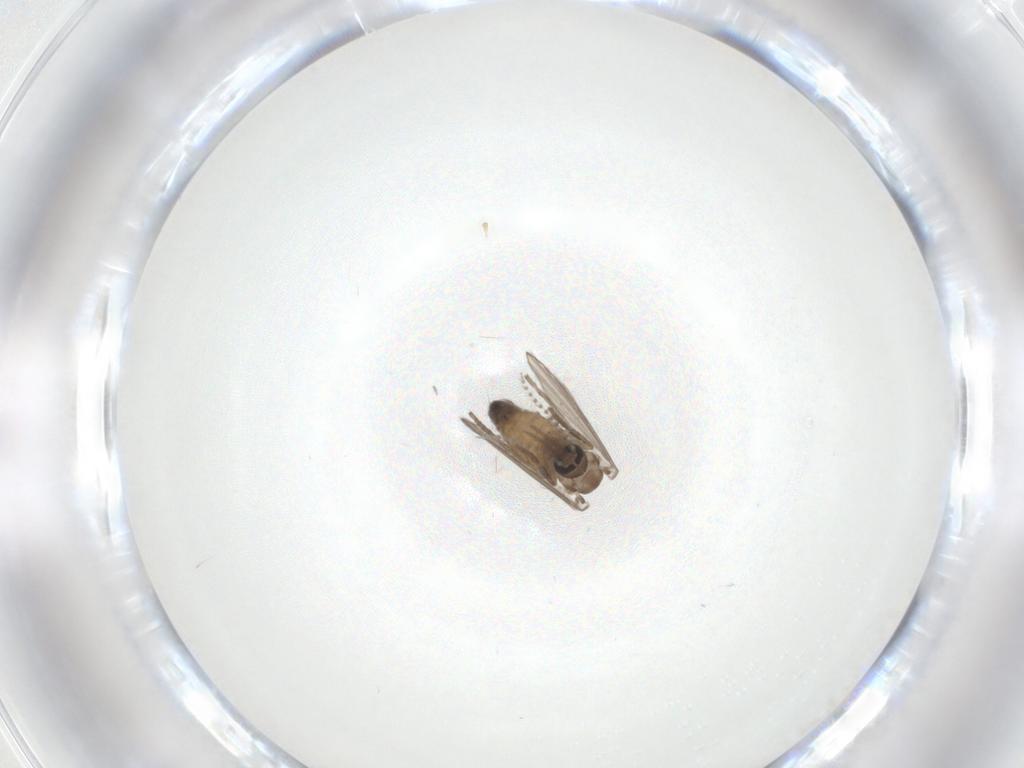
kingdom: Animalia
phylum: Arthropoda
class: Insecta
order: Diptera
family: Psychodidae
